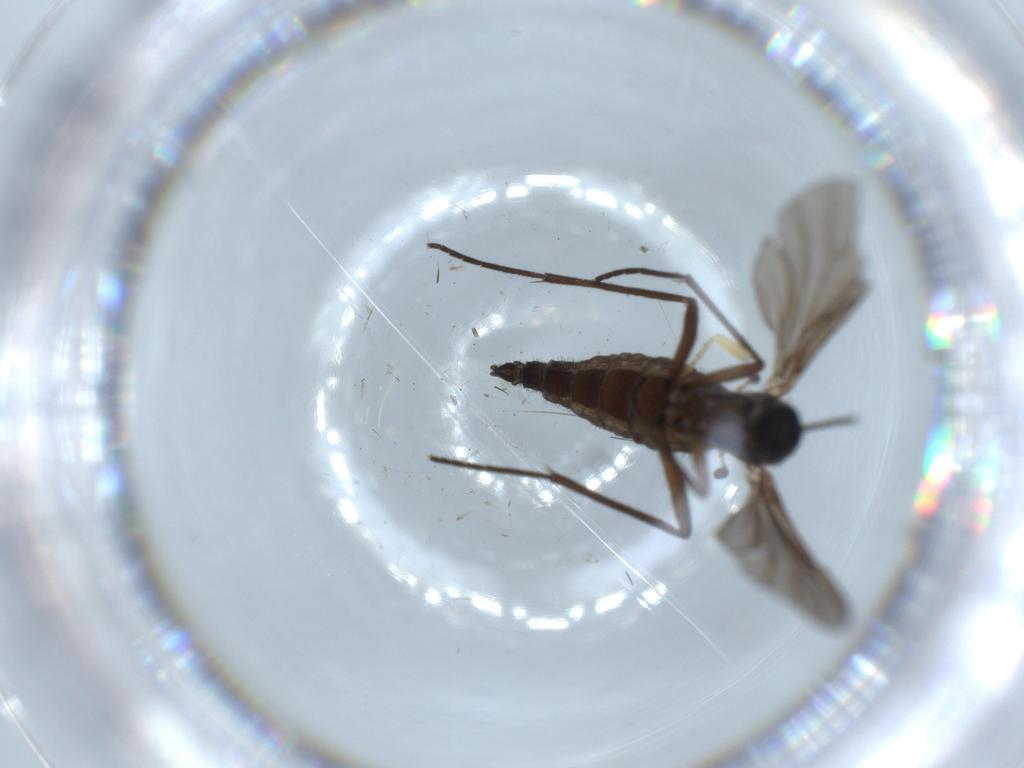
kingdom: Animalia
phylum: Arthropoda
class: Insecta
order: Diptera
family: Sciaridae
